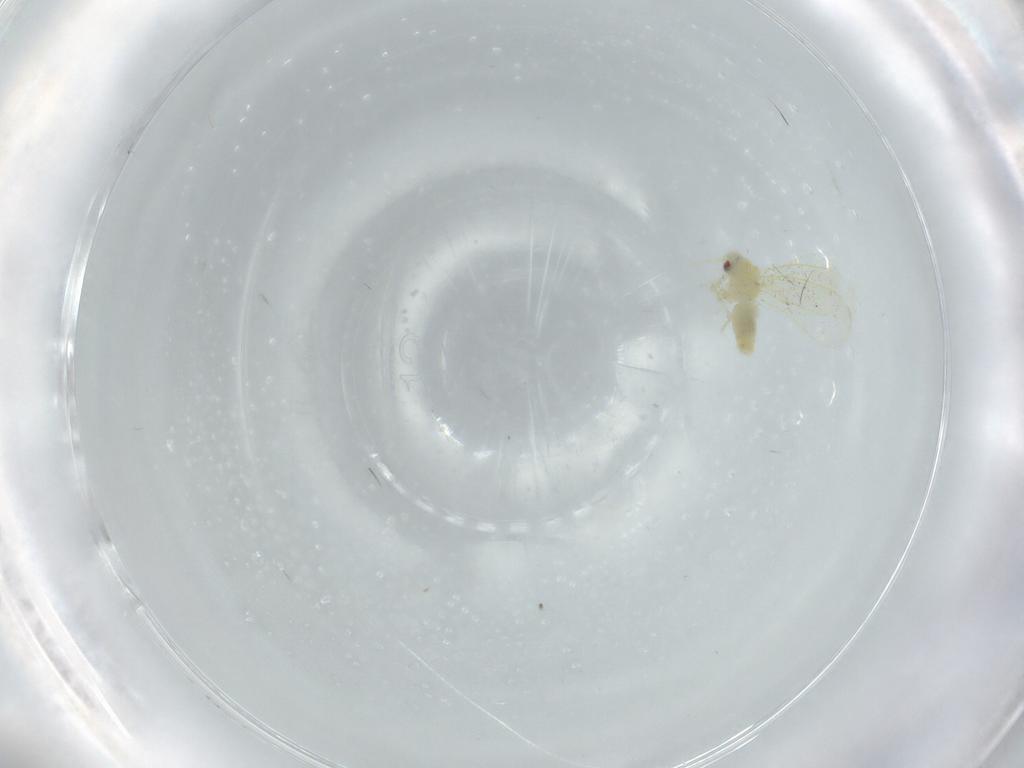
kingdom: Animalia
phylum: Arthropoda
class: Insecta
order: Hemiptera
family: Aleyrodidae
